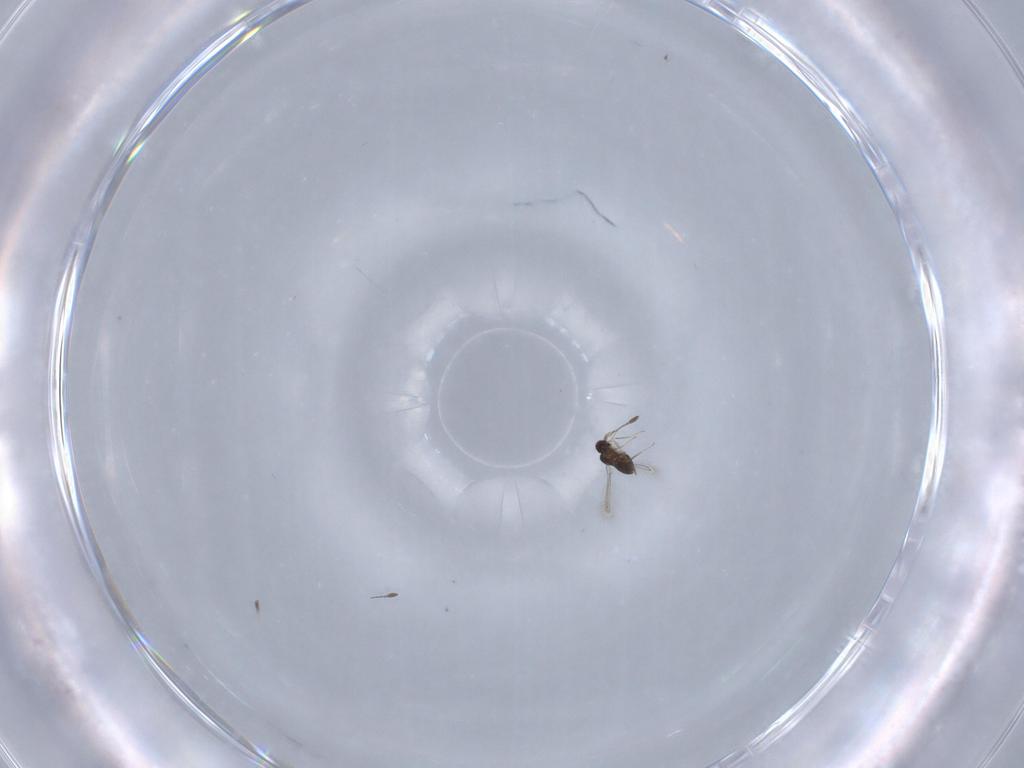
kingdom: Animalia
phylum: Arthropoda
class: Insecta
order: Hymenoptera
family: Mymaridae
